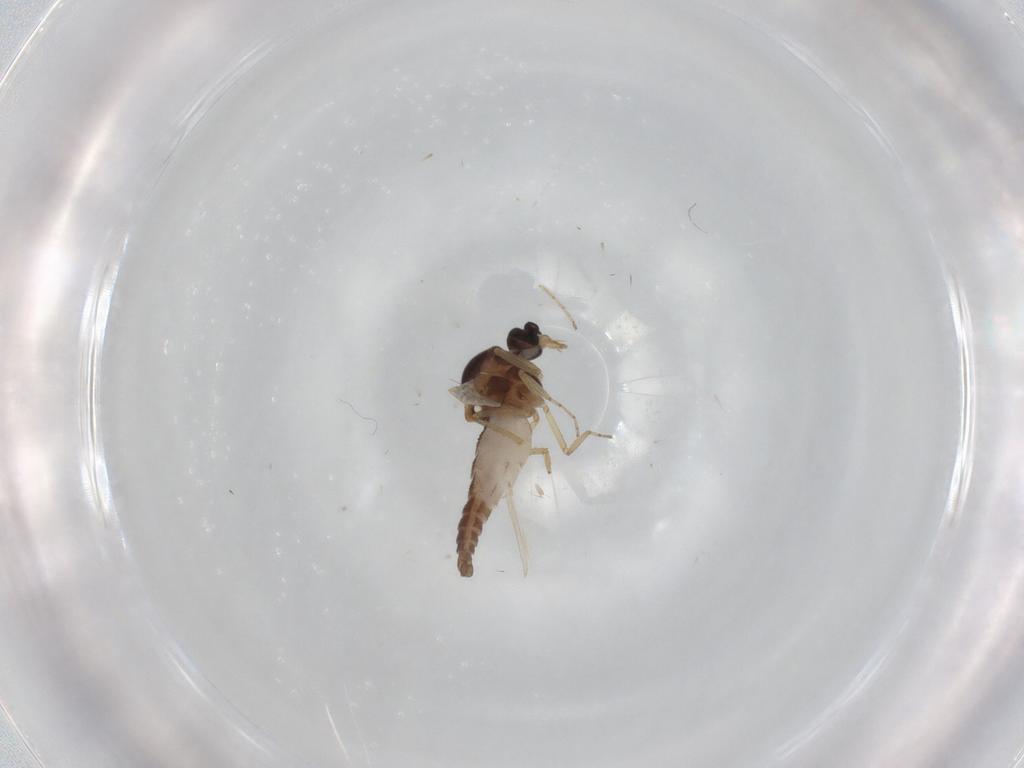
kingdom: Animalia
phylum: Arthropoda
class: Insecta
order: Diptera
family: Ceratopogonidae
